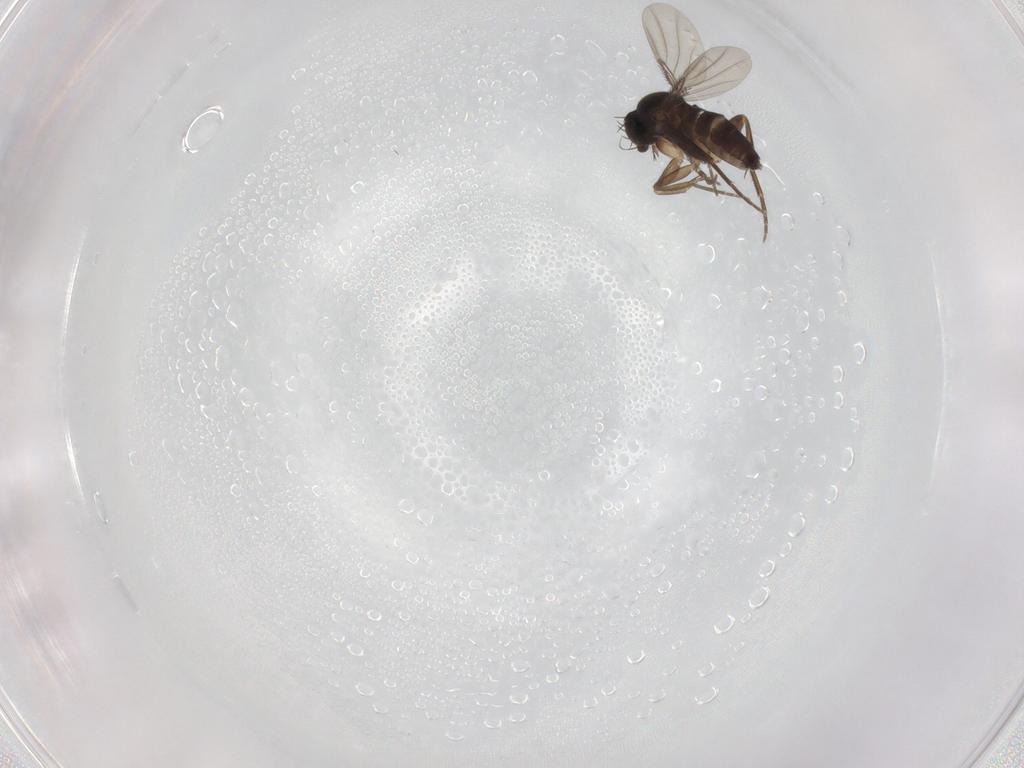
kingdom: Animalia
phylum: Arthropoda
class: Insecta
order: Diptera
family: Phoridae
